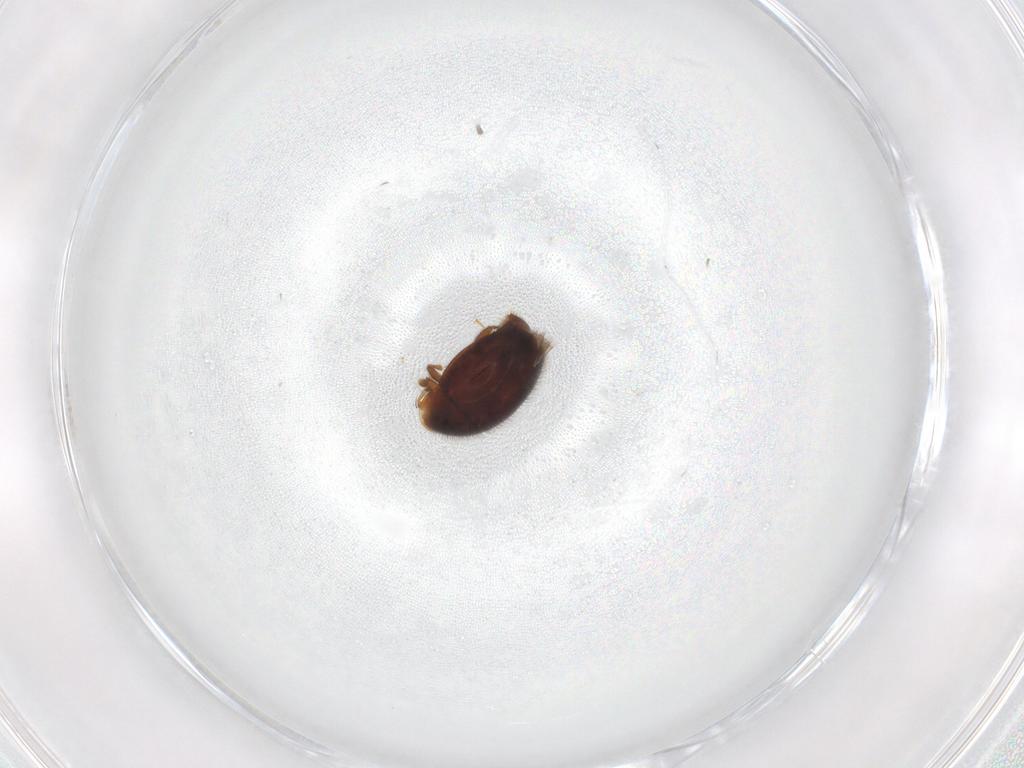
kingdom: Animalia
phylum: Arthropoda
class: Insecta
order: Coleoptera
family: Corylophidae
